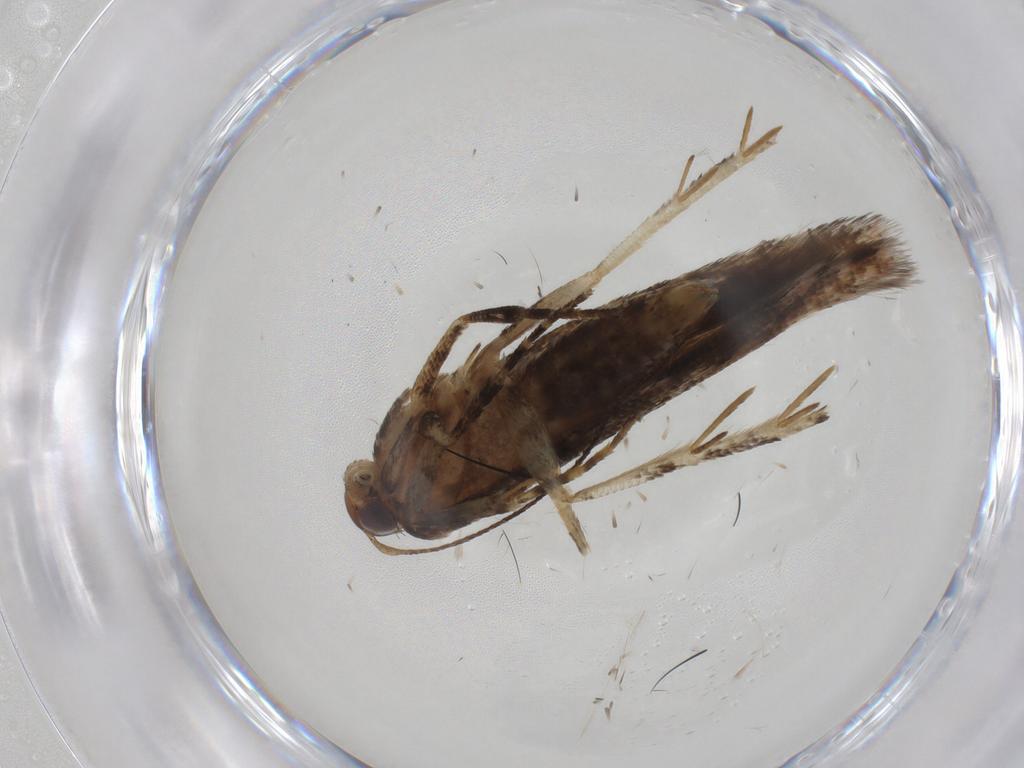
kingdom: Animalia
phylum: Arthropoda
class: Insecta
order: Lepidoptera
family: Gelechiidae
